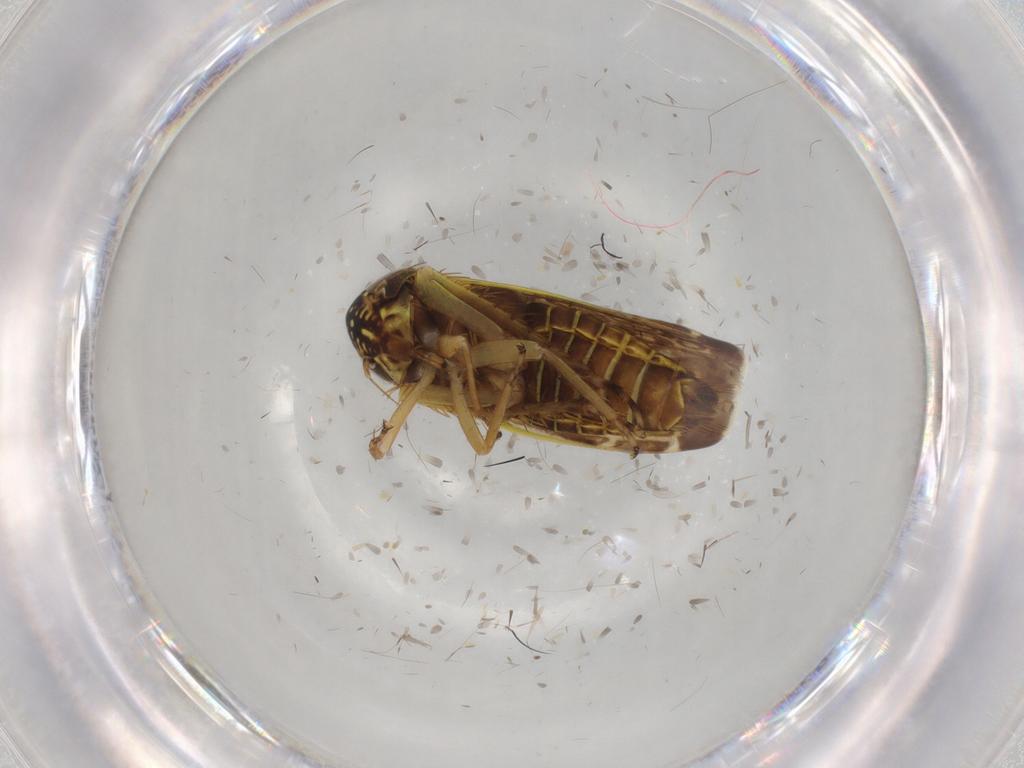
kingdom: Animalia
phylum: Arthropoda
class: Insecta
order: Hemiptera
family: Cicadellidae
